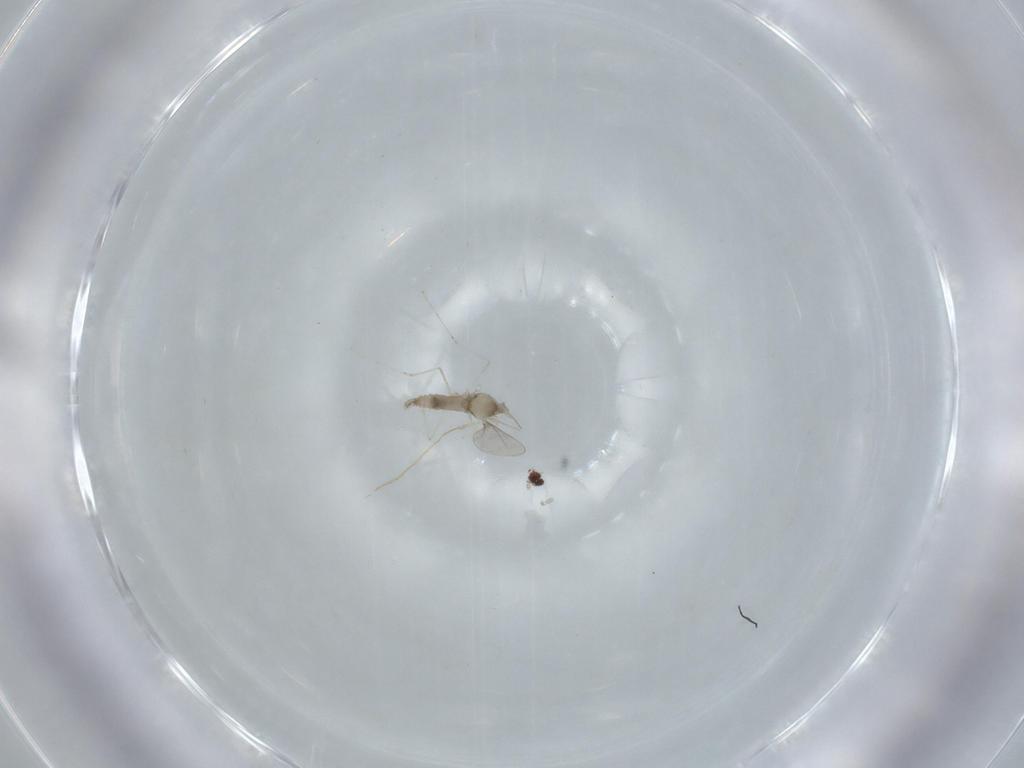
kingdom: Animalia
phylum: Arthropoda
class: Insecta
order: Diptera
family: Cecidomyiidae
